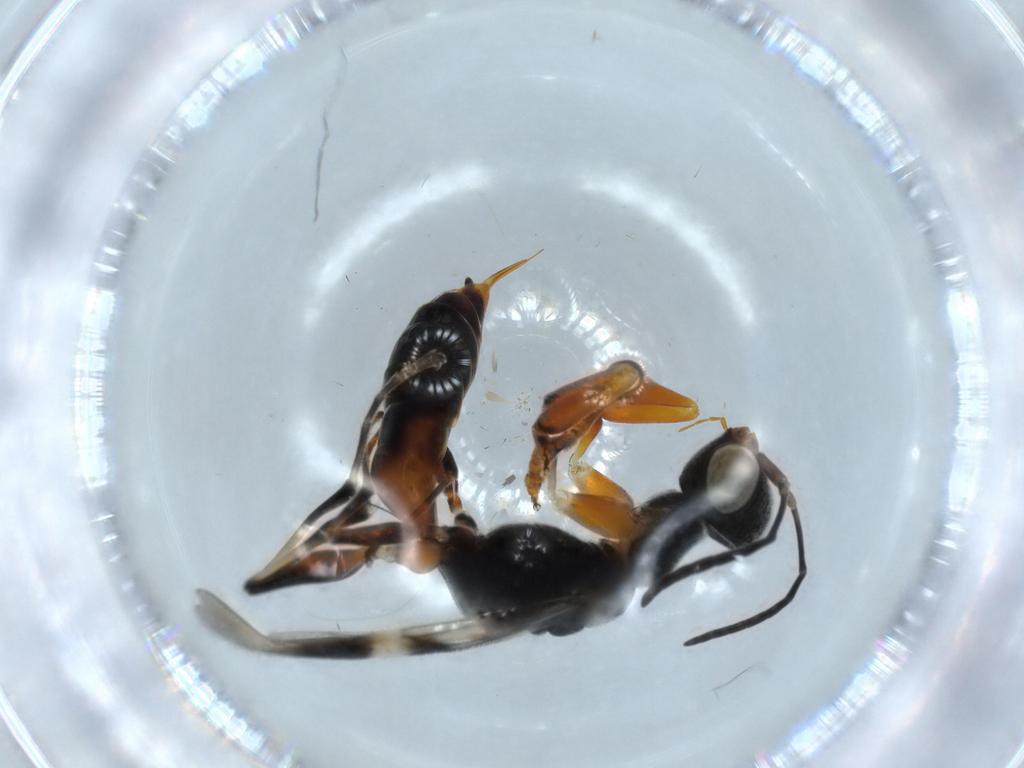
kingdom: Animalia
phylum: Arthropoda
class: Insecta
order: Hymenoptera
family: Dryinidae
